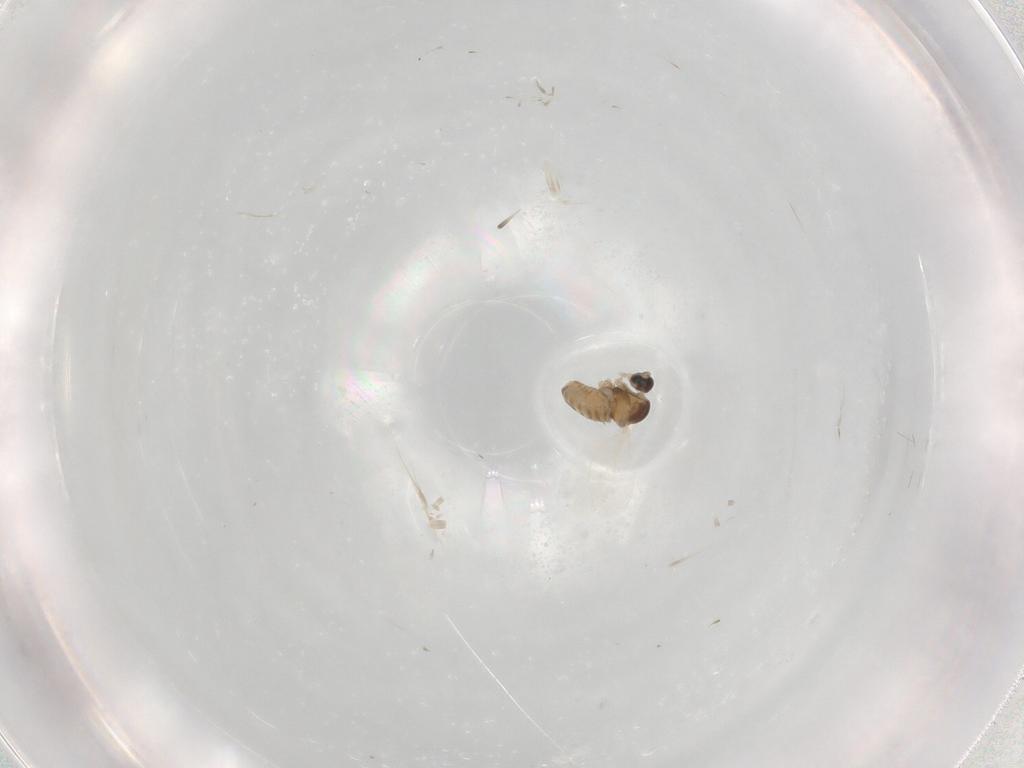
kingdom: Animalia
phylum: Arthropoda
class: Insecta
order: Diptera
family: Cecidomyiidae
